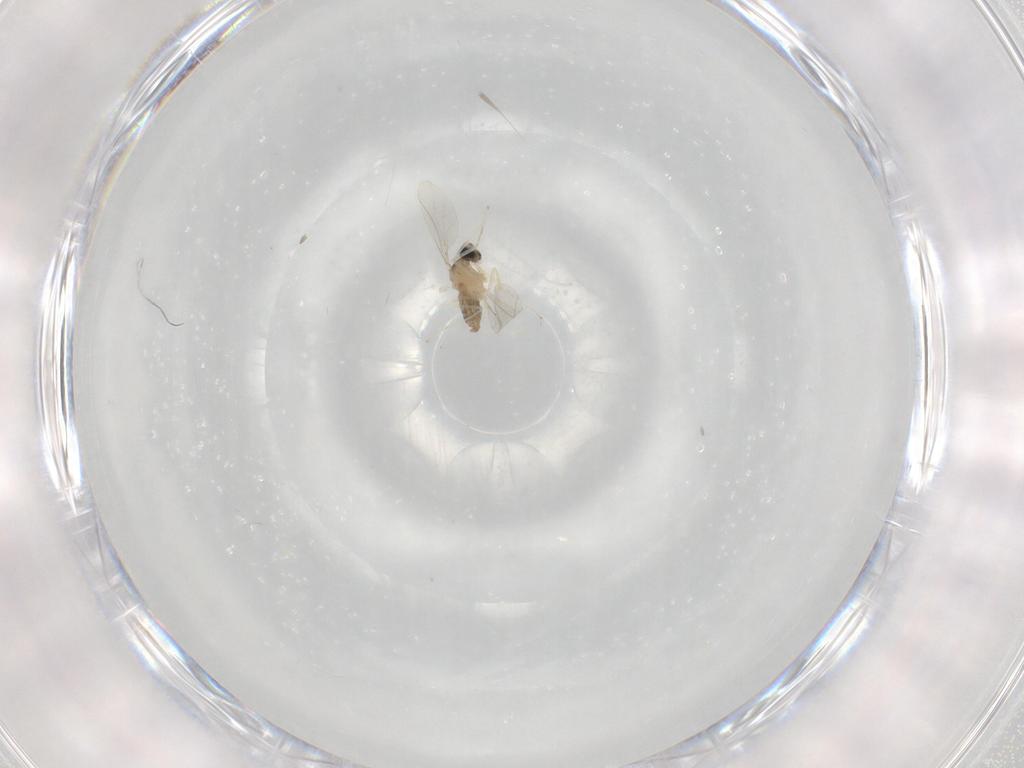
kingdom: Animalia
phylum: Arthropoda
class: Insecta
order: Diptera
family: Cecidomyiidae
